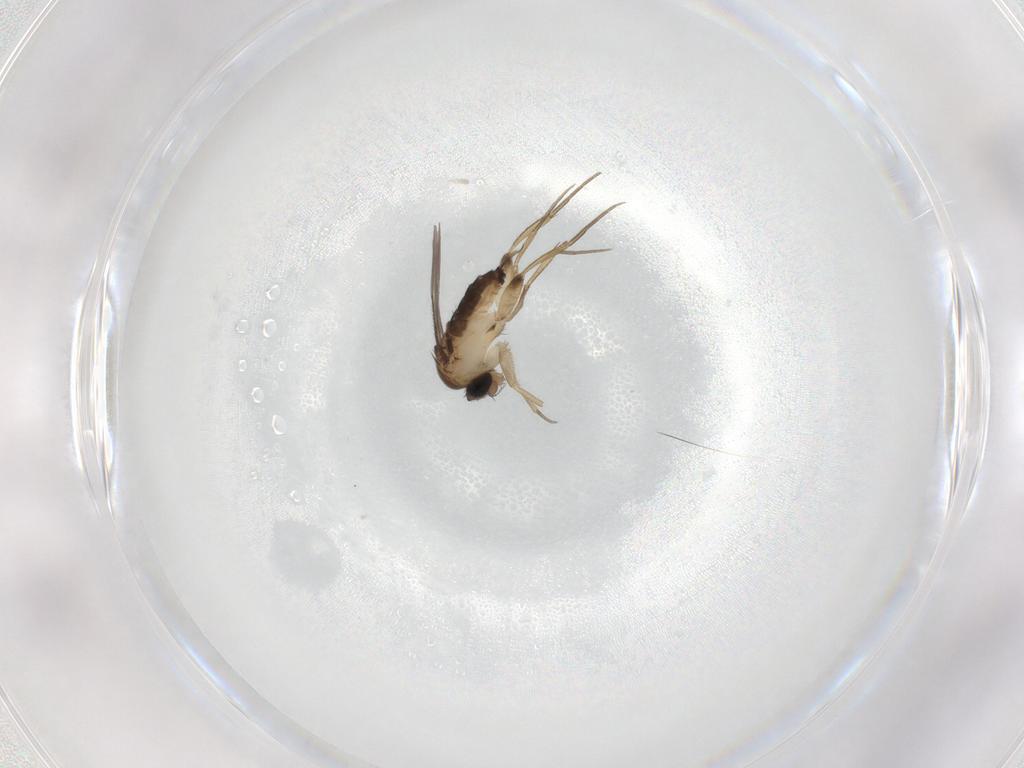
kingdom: Animalia
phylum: Arthropoda
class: Insecta
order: Diptera
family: Phoridae
